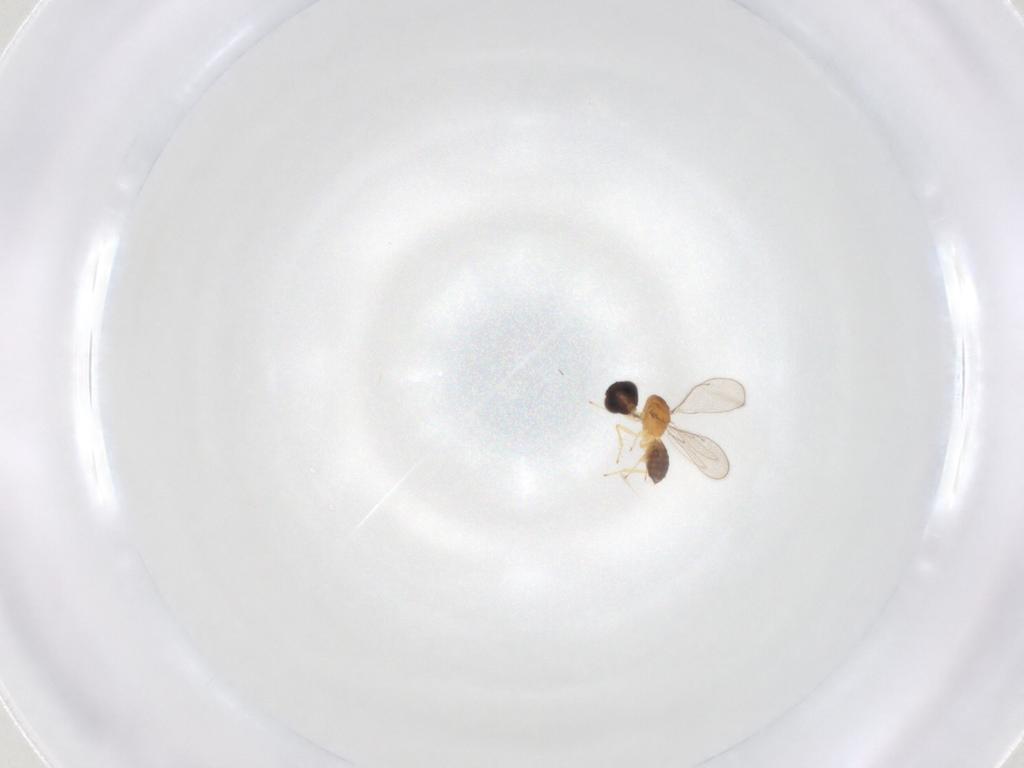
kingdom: Animalia
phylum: Arthropoda
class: Insecta
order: Hymenoptera
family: Eulophidae
